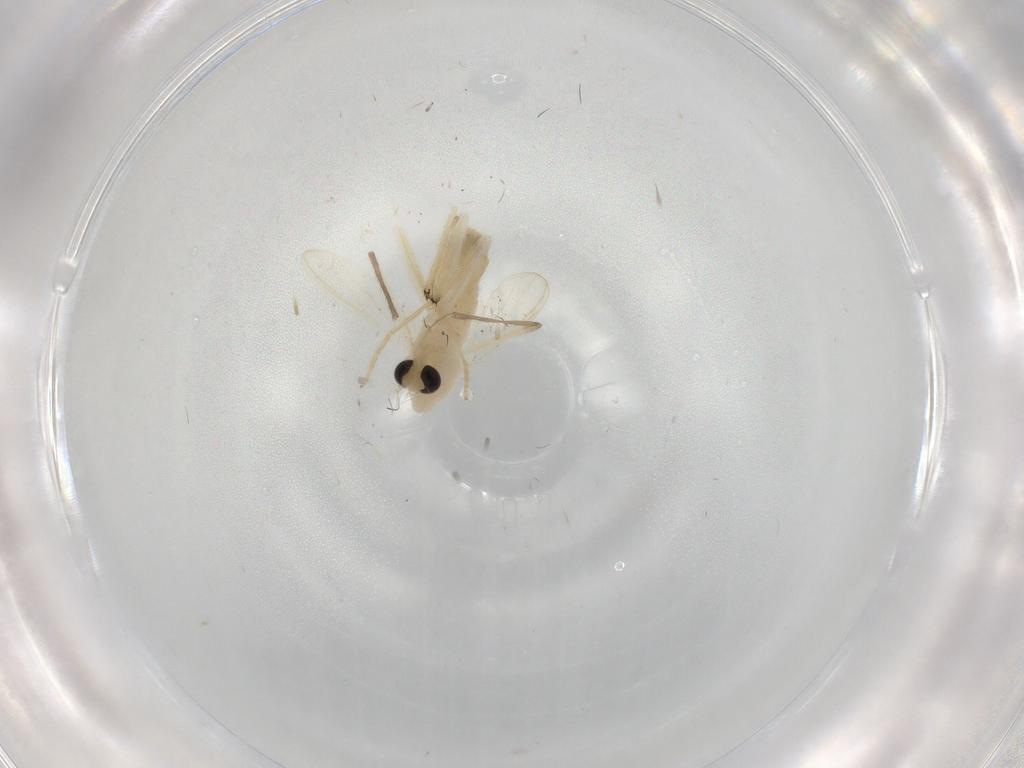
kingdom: Animalia
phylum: Arthropoda
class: Insecta
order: Diptera
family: Chironomidae
